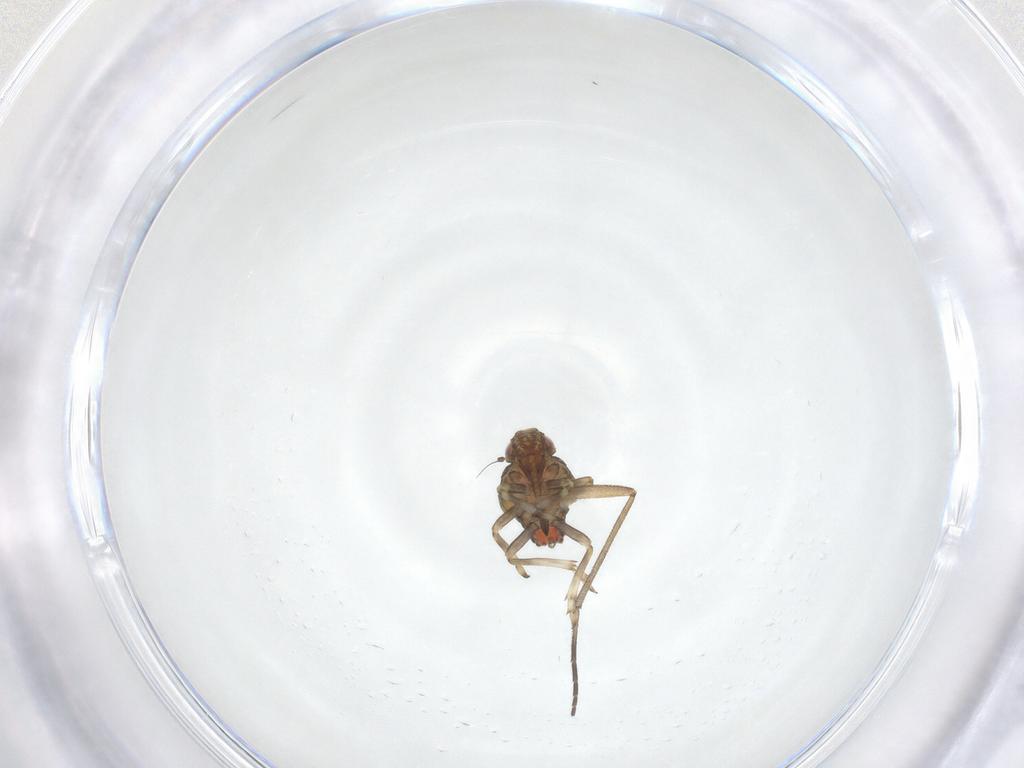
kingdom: Animalia
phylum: Arthropoda
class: Insecta
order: Hemiptera
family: Tropiduchidae
